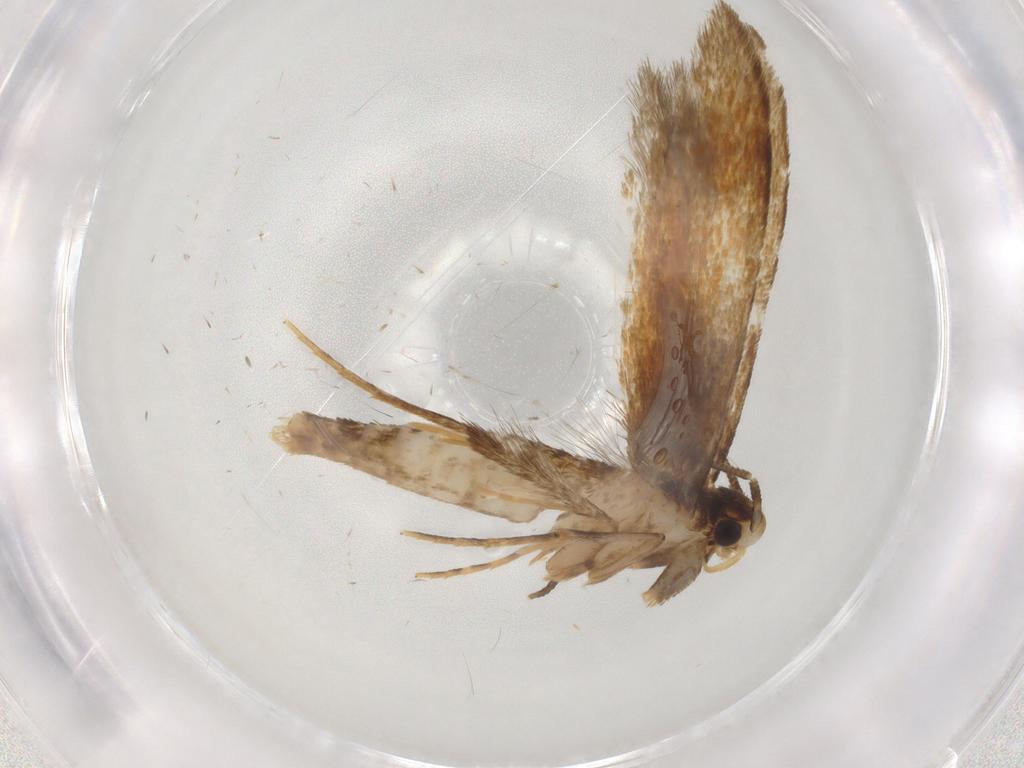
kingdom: Animalia
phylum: Arthropoda
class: Insecta
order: Lepidoptera
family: Tineidae
